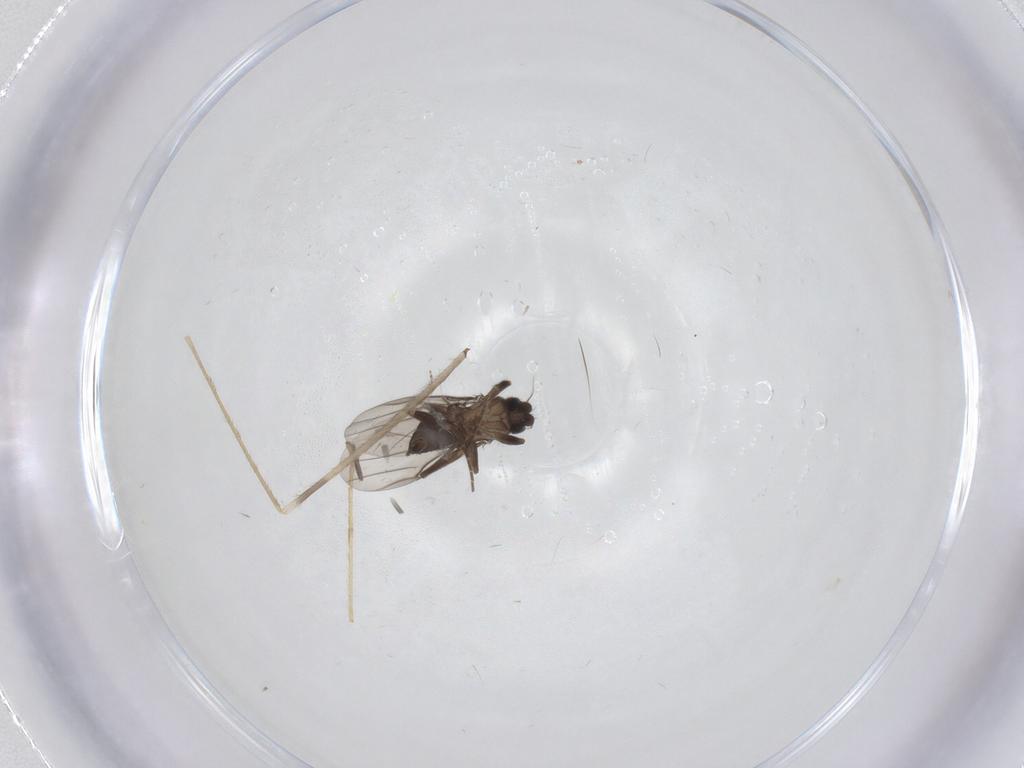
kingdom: Animalia
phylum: Arthropoda
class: Insecta
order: Diptera
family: Limoniidae
